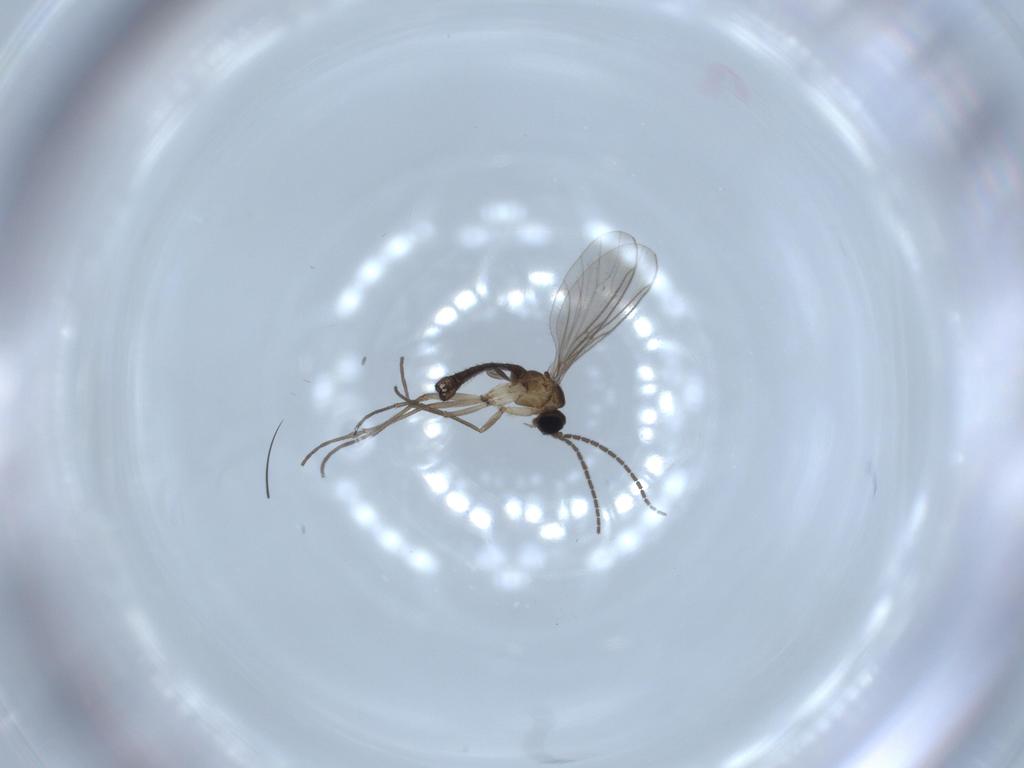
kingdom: Animalia
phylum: Arthropoda
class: Insecta
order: Diptera
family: Sciaridae
